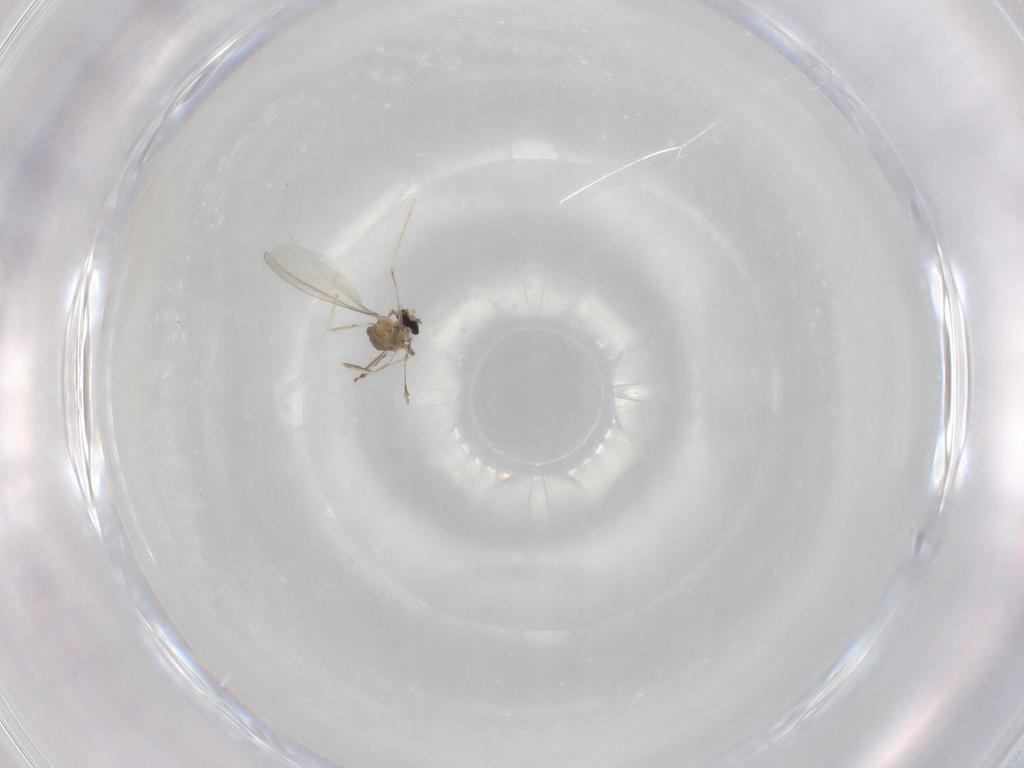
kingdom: Animalia
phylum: Arthropoda
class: Insecta
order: Diptera
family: Cecidomyiidae
